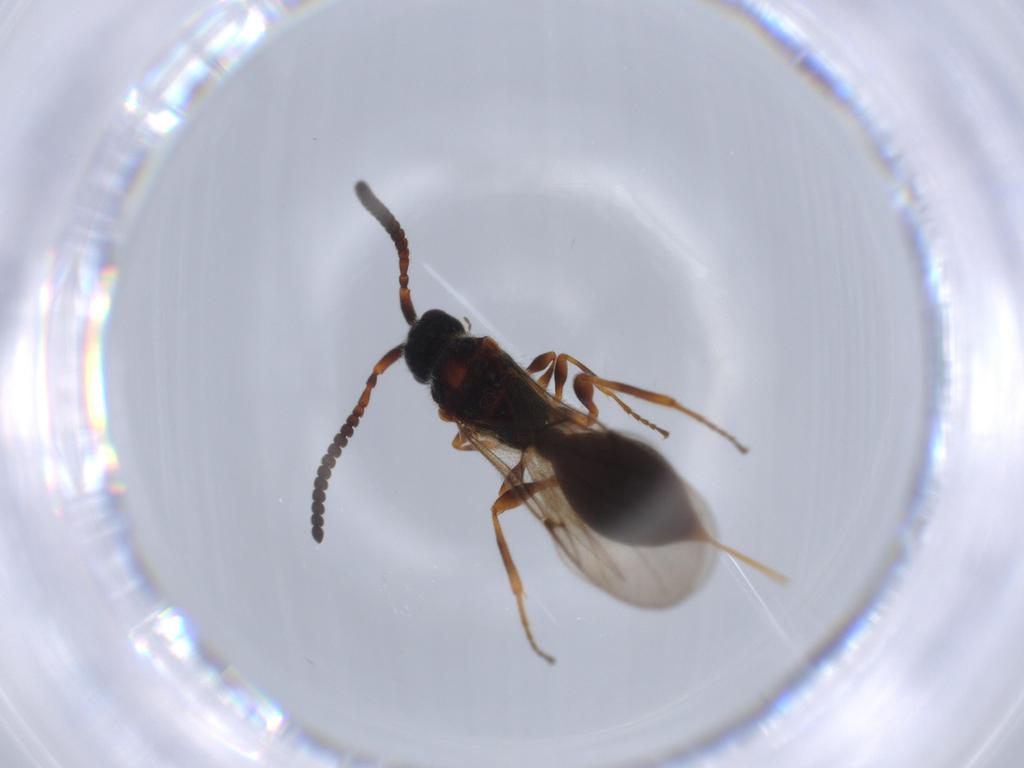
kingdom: Animalia
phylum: Arthropoda
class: Insecta
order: Hymenoptera
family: Diapriidae
